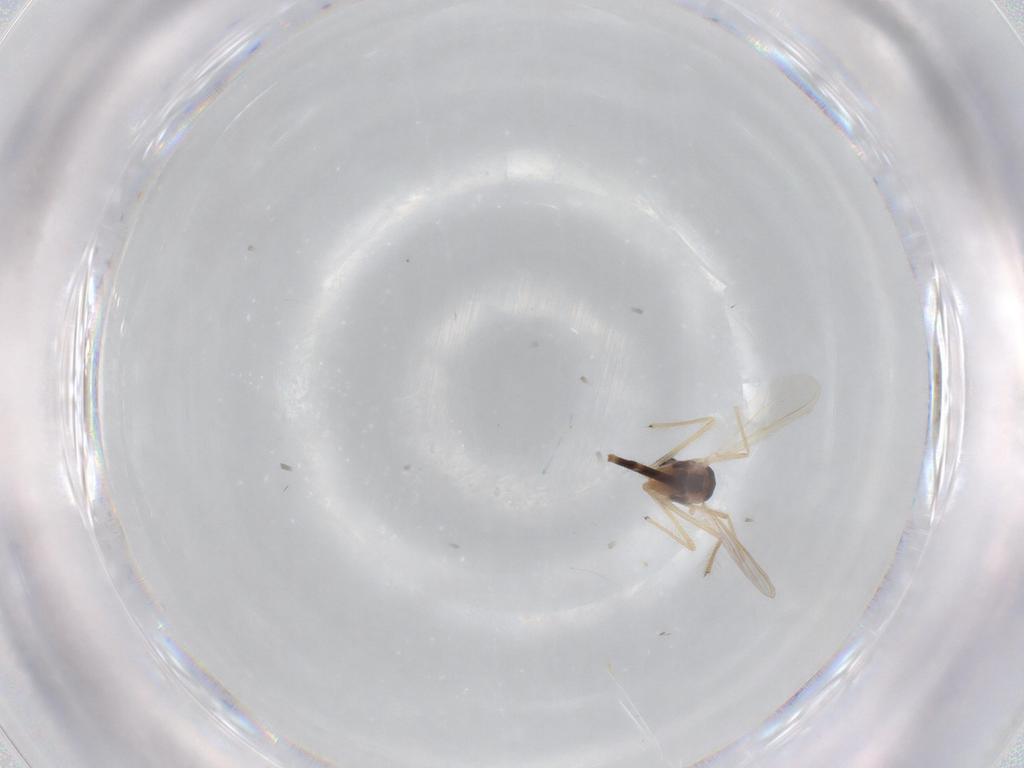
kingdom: Animalia
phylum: Arthropoda
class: Insecta
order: Diptera
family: Chironomidae
